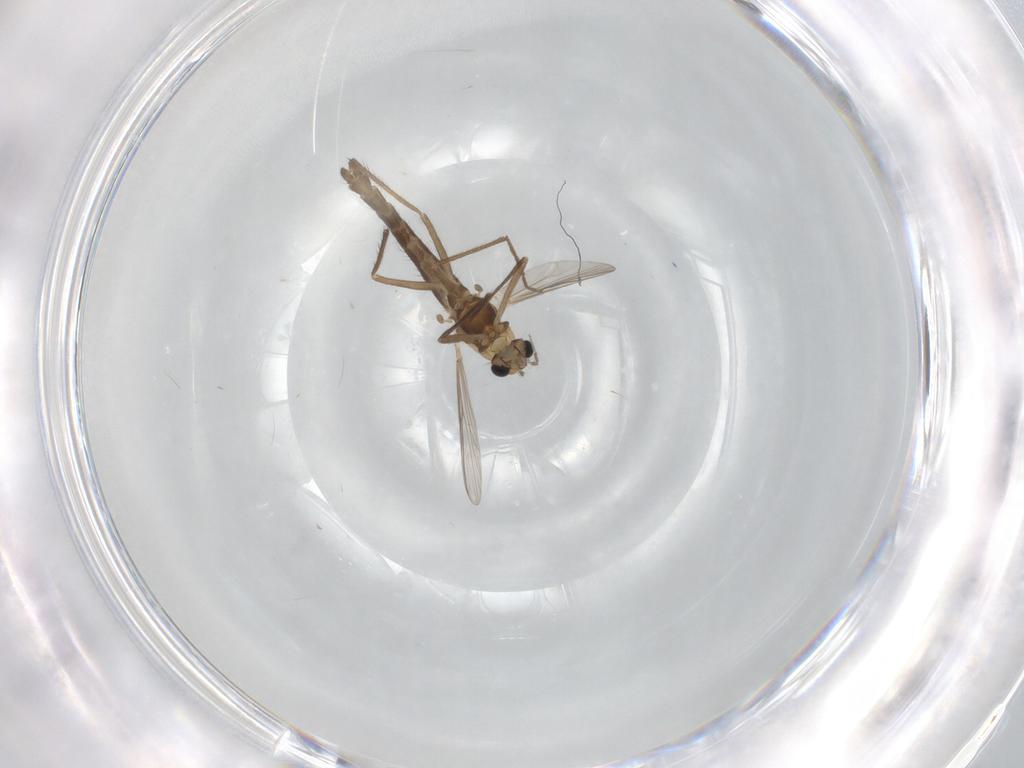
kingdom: Animalia
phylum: Arthropoda
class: Insecta
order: Diptera
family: Chironomidae
